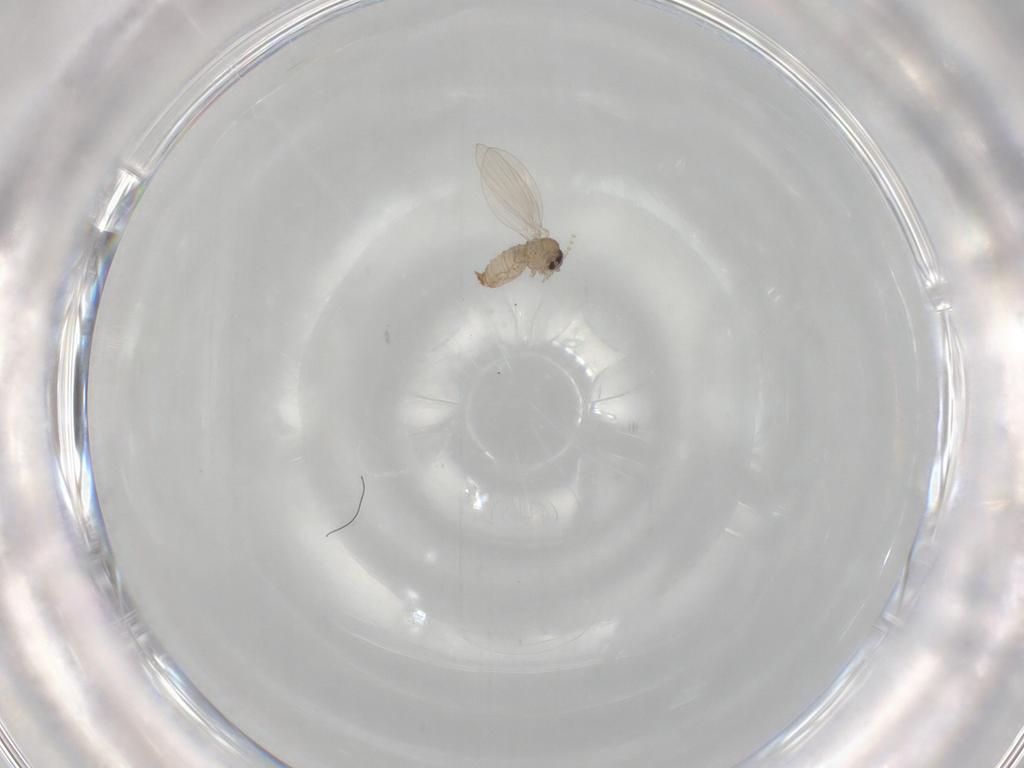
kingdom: Animalia
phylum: Arthropoda
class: Insecta
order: Diptera
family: Psychodidae
